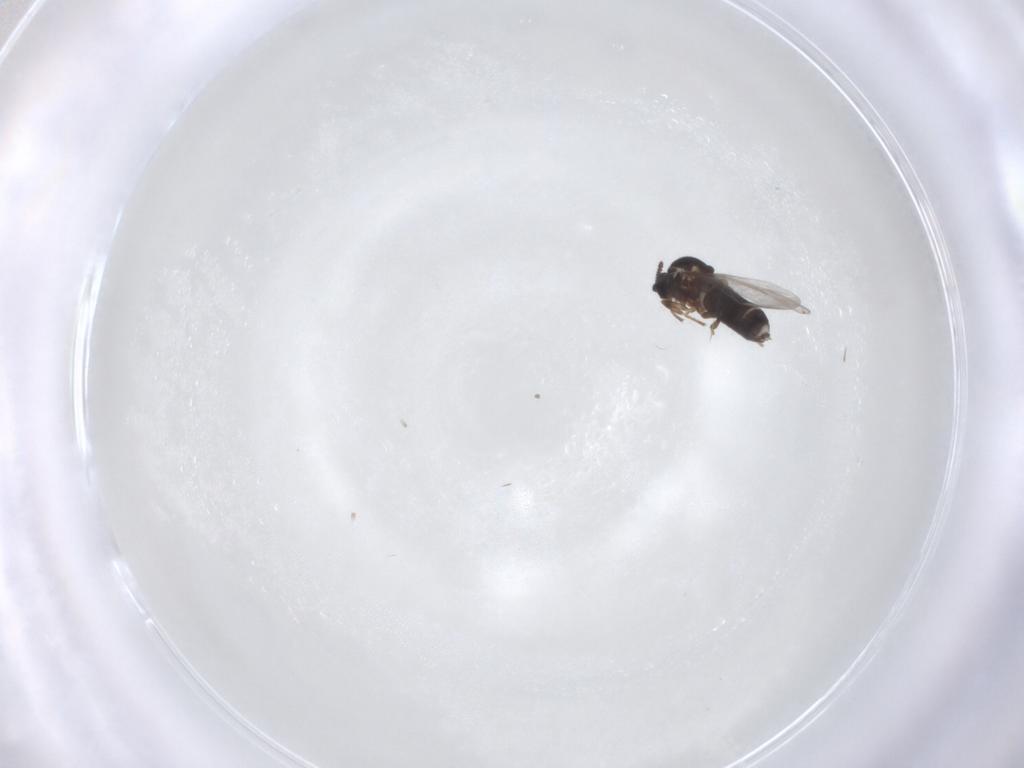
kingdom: Animalia
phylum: Arthropoda
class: Insecta
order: Diptera
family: Scatopsidae
